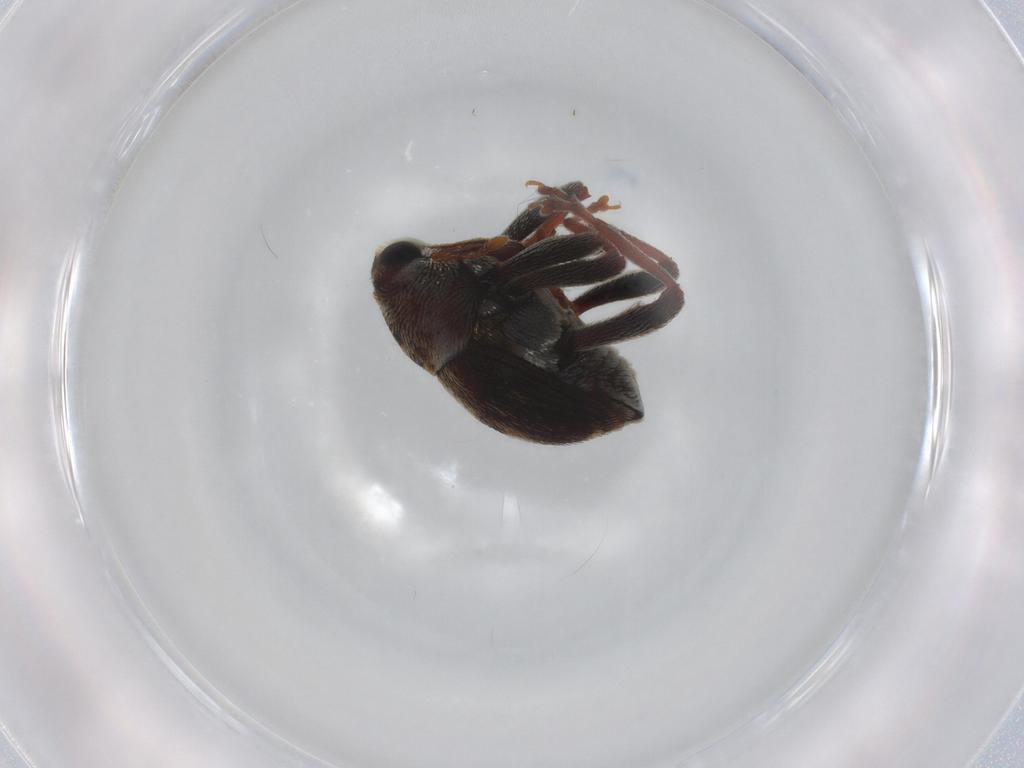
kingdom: Animalia
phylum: Arthropoda
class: Insecta
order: Coleoptera
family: Curculionidae
